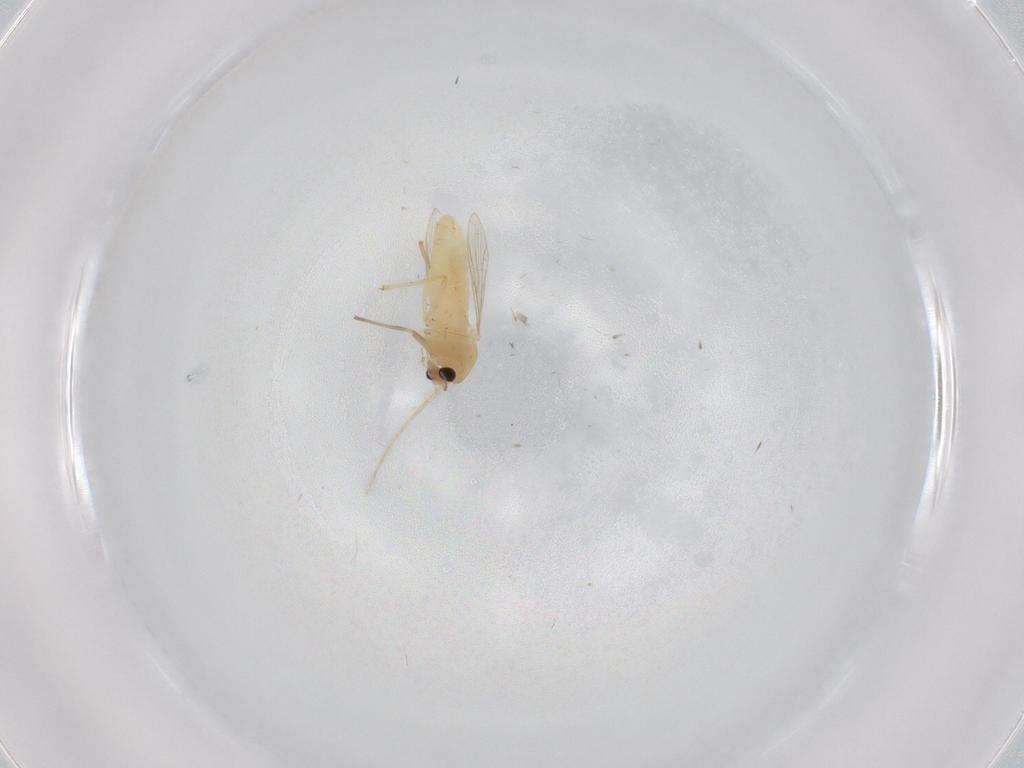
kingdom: Animalia
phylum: Arthropoda
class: Insecta
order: Diptera
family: Chironomidae
